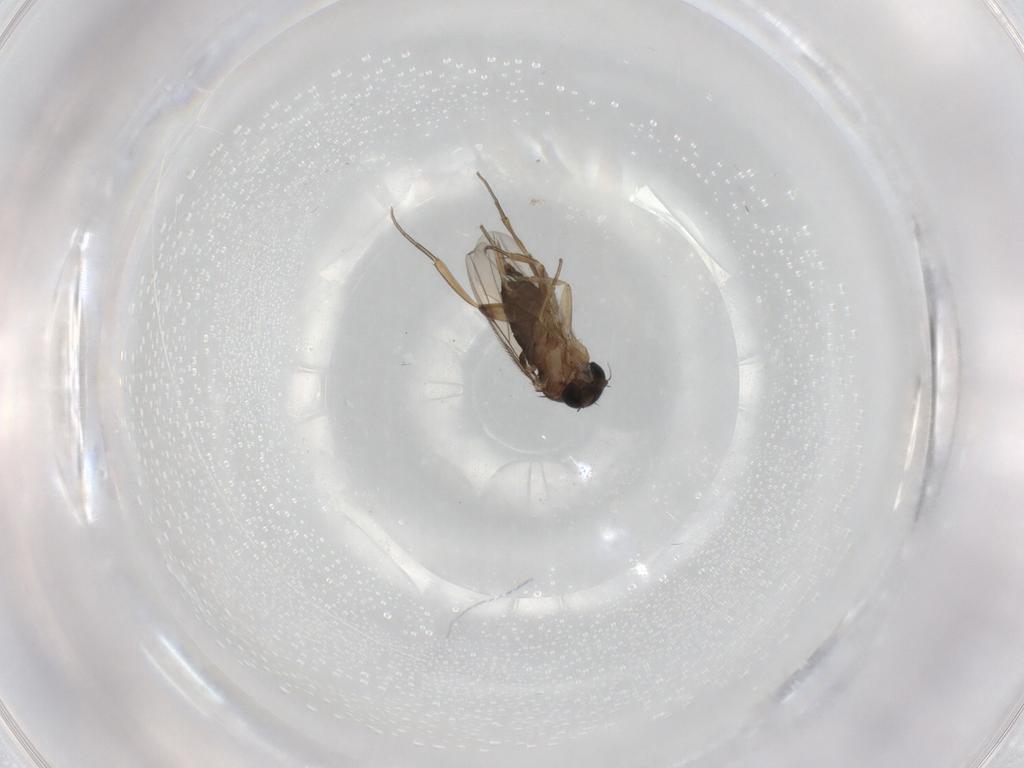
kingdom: Animalia
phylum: Arthropoda
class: Insecta
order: Diptera
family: Cecidomyiidae
